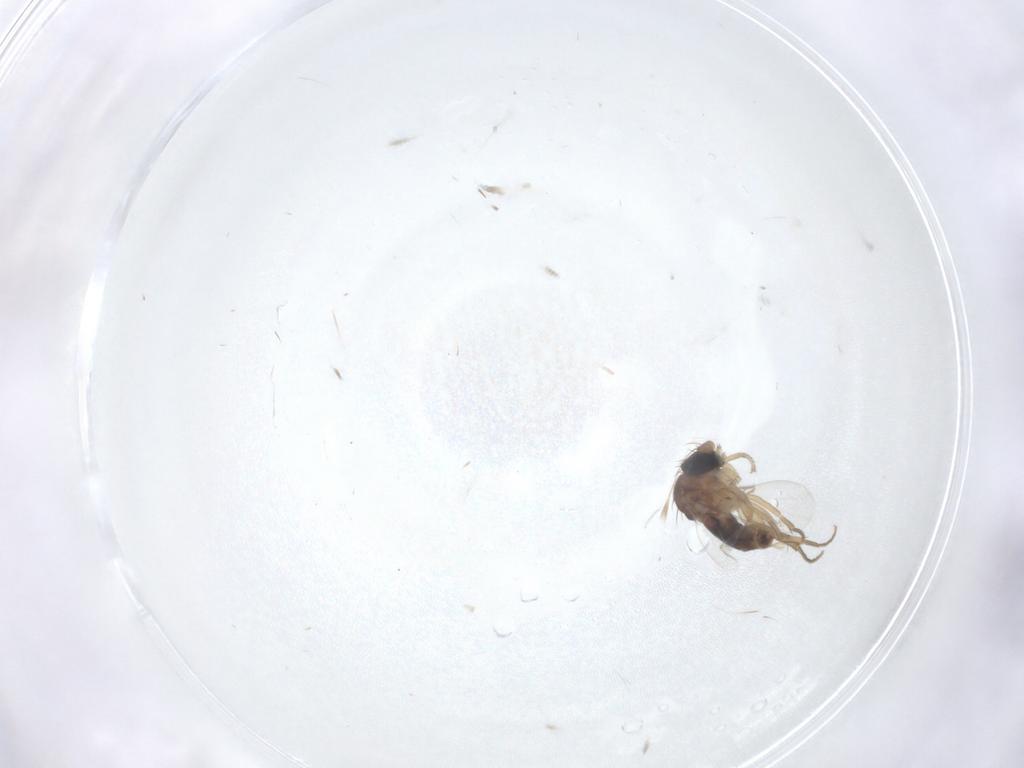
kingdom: Animalia
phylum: Arthropoda
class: Insecta
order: Diptera
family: Phoridae
